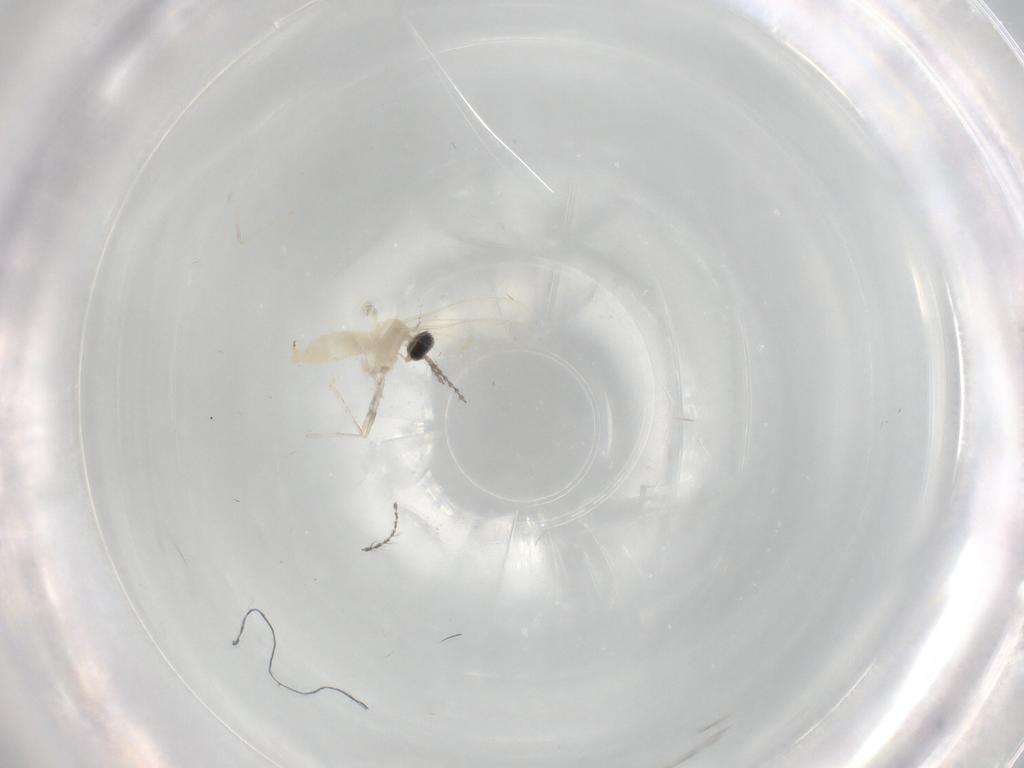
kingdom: Animalia
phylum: Arthropoda
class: Insecta
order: Diptera
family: Cecidomyiidae
